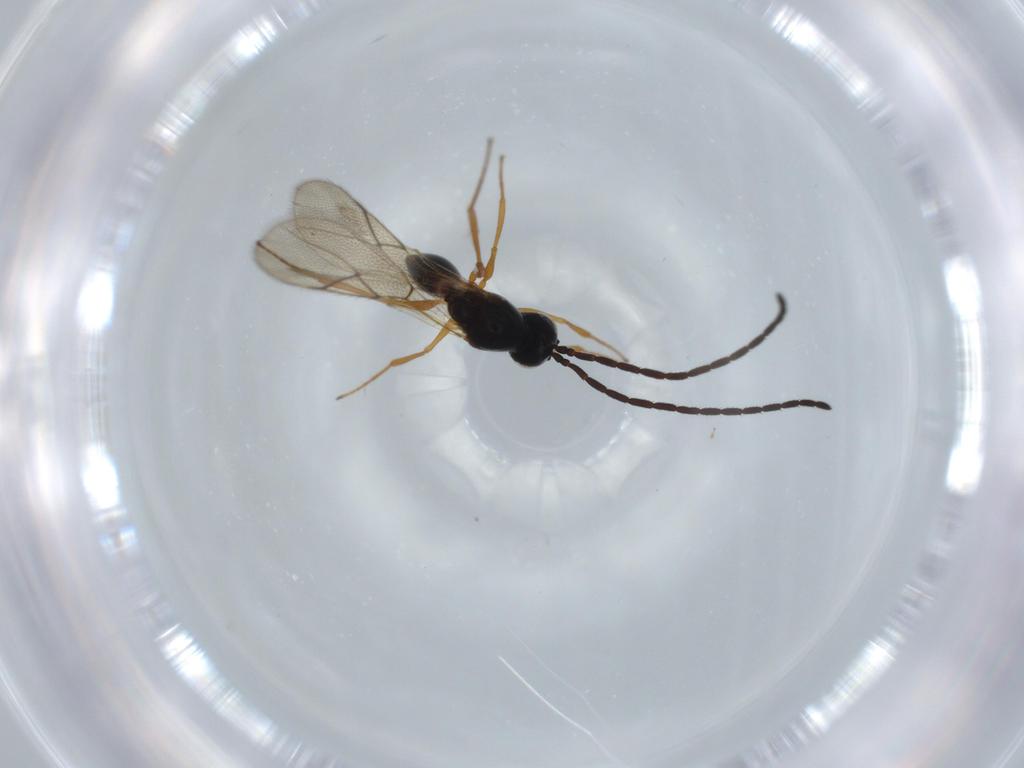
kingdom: Animalia
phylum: Arthropoda
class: Insecta
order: Hymenoptera
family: Figitidae
